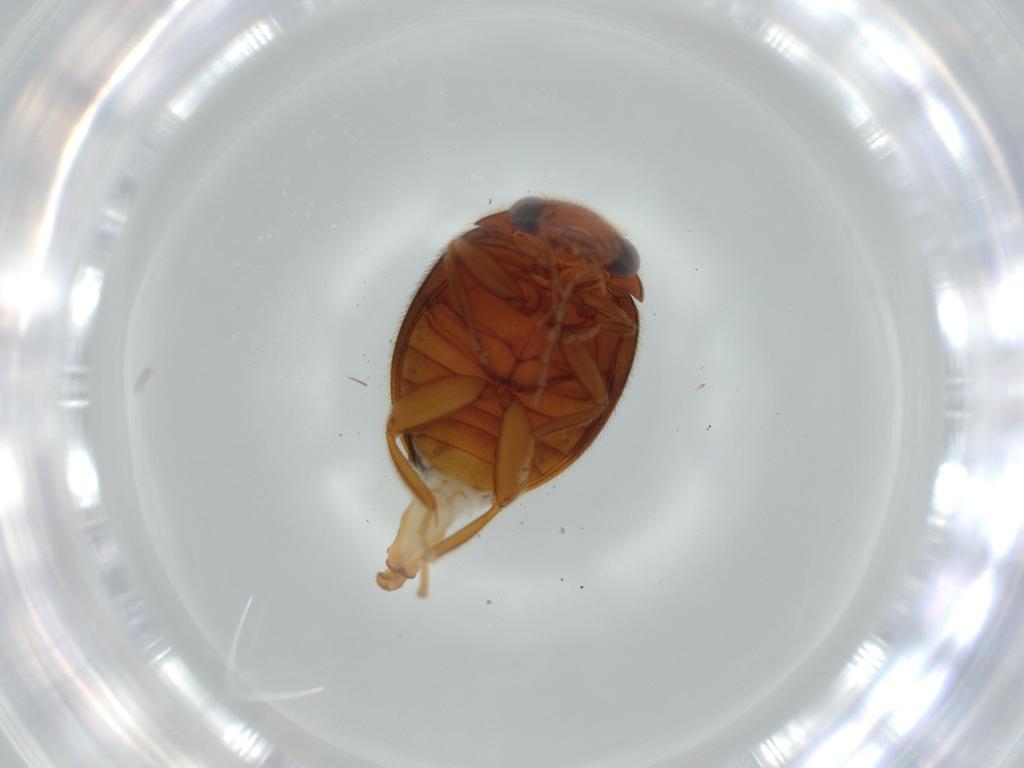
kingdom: Animalia
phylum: Arthropoda
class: Insecta
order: Coleoptera
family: Scirtidae
